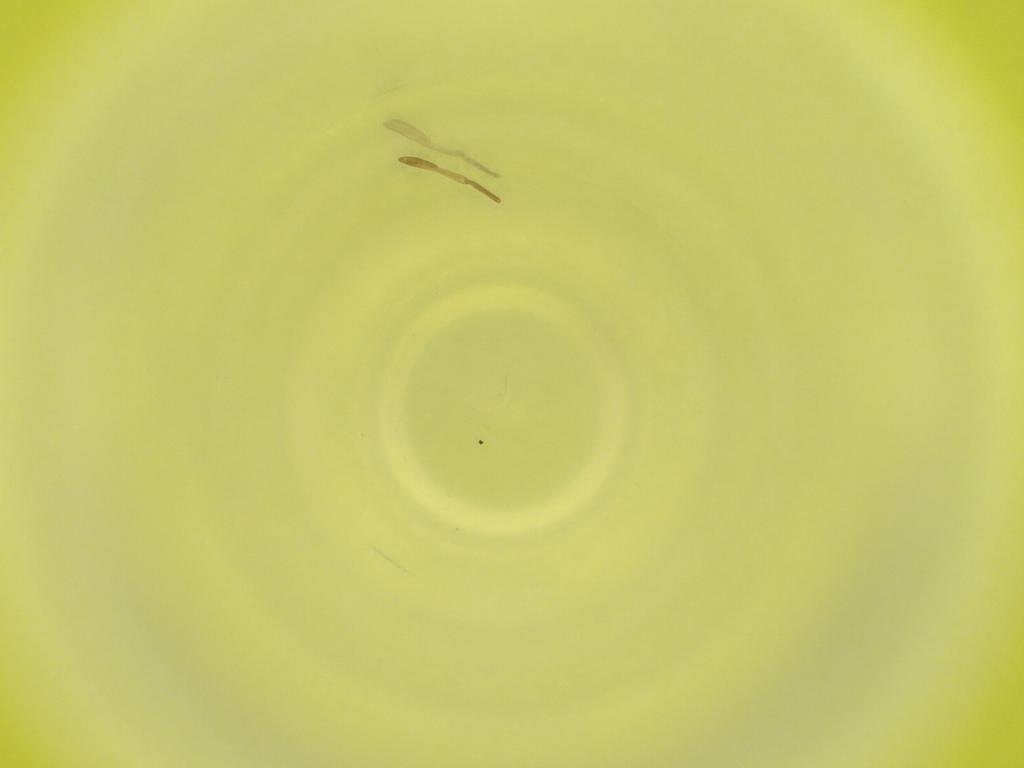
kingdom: Animalia
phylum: Arthropoda
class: Insecta
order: Diptera
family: Cecidomyiidae
